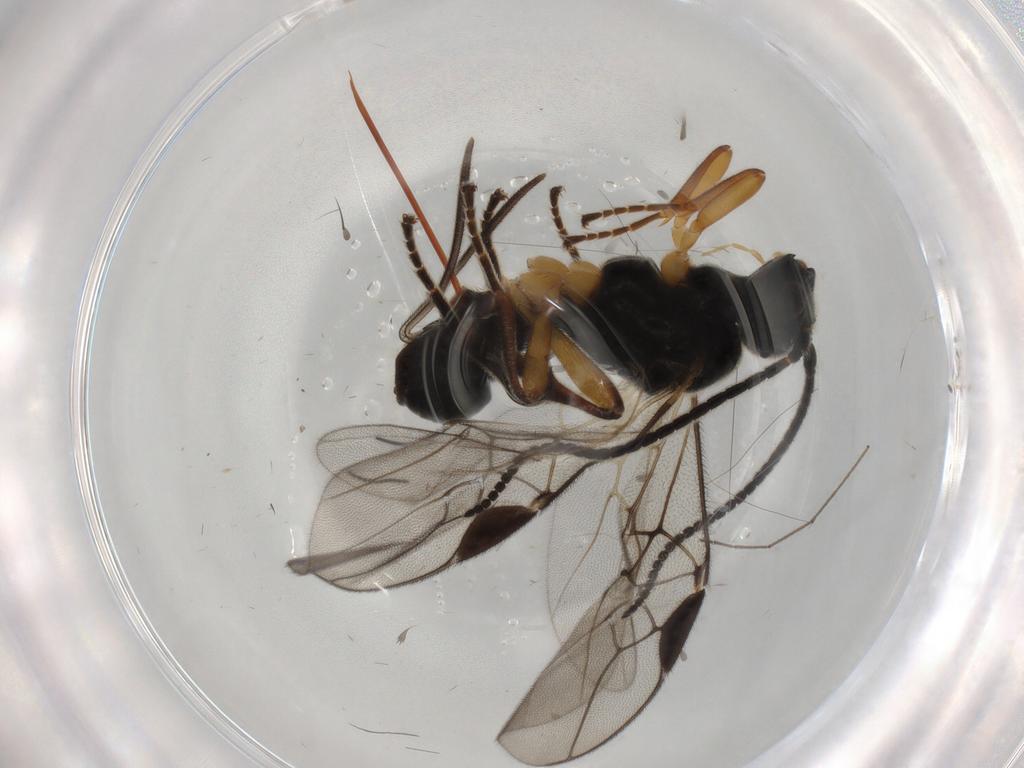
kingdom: Animalia
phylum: Arthropoda
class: Insecta
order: Hymenoptera
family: Braconidae
